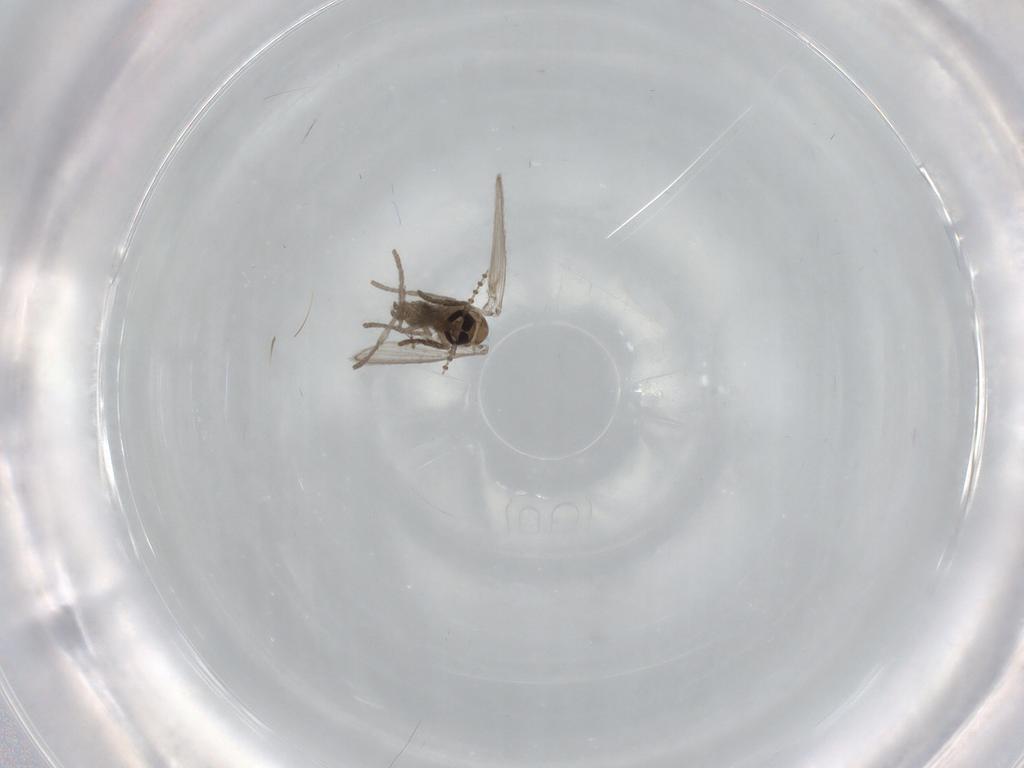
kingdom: Animalia
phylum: Arthropoda
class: Insecta
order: Diptera
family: Psychodidae
